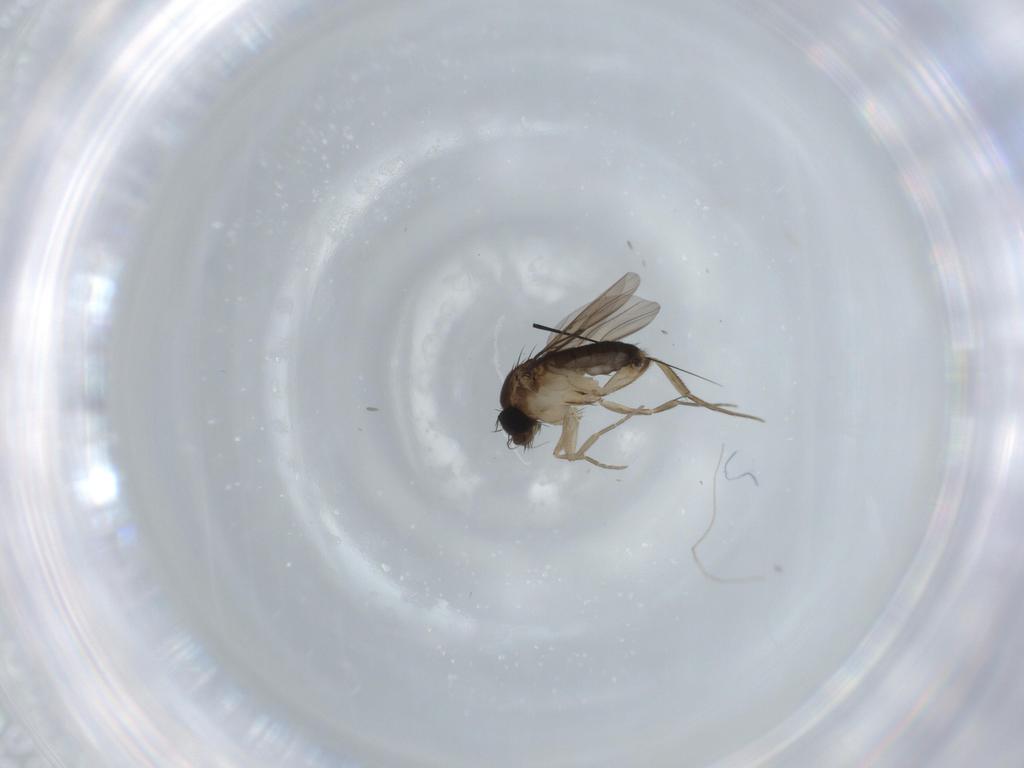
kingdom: Animalia
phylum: Arthropoda
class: Insecta
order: Diptera
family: Phoridae
